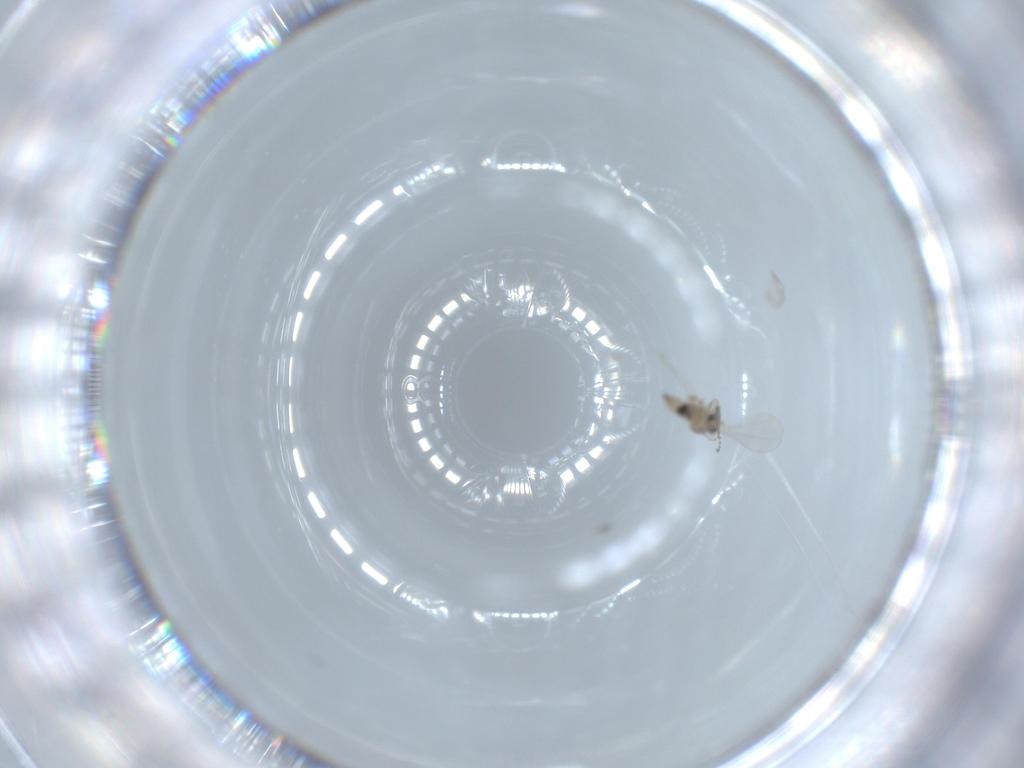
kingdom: Animalia
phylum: Arthropoda
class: Insecta
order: Diptera
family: Cecidomyiidae
